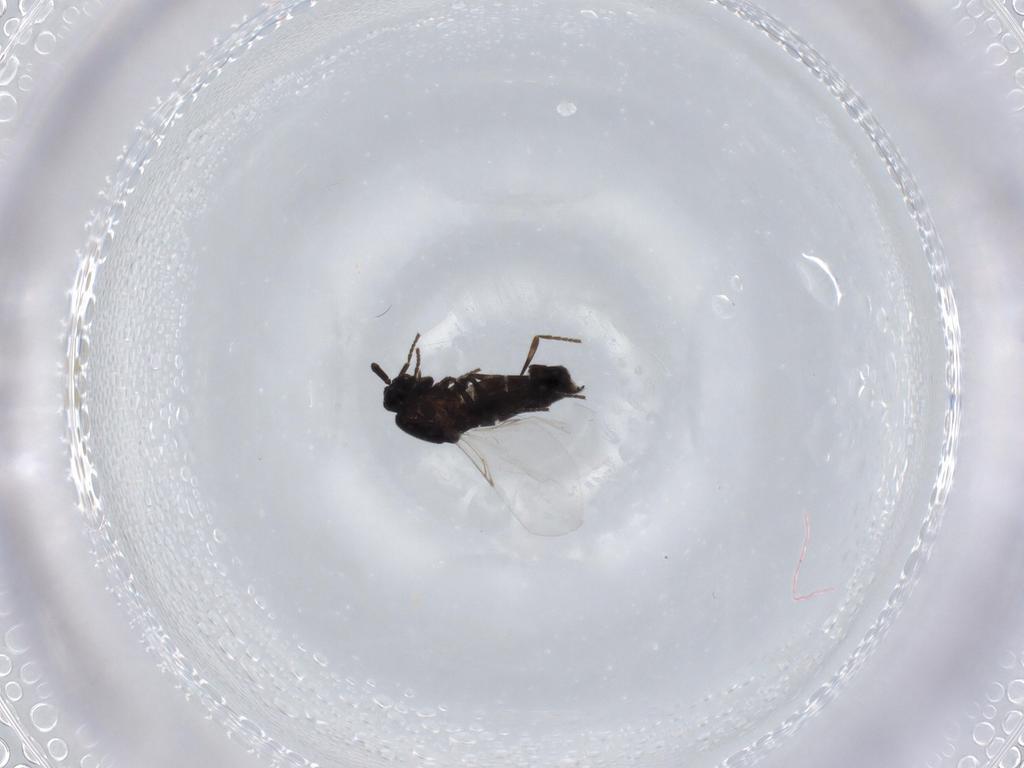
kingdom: Animalia
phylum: Arthropoda
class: Insecta
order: Diptera
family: Scatopsidae
